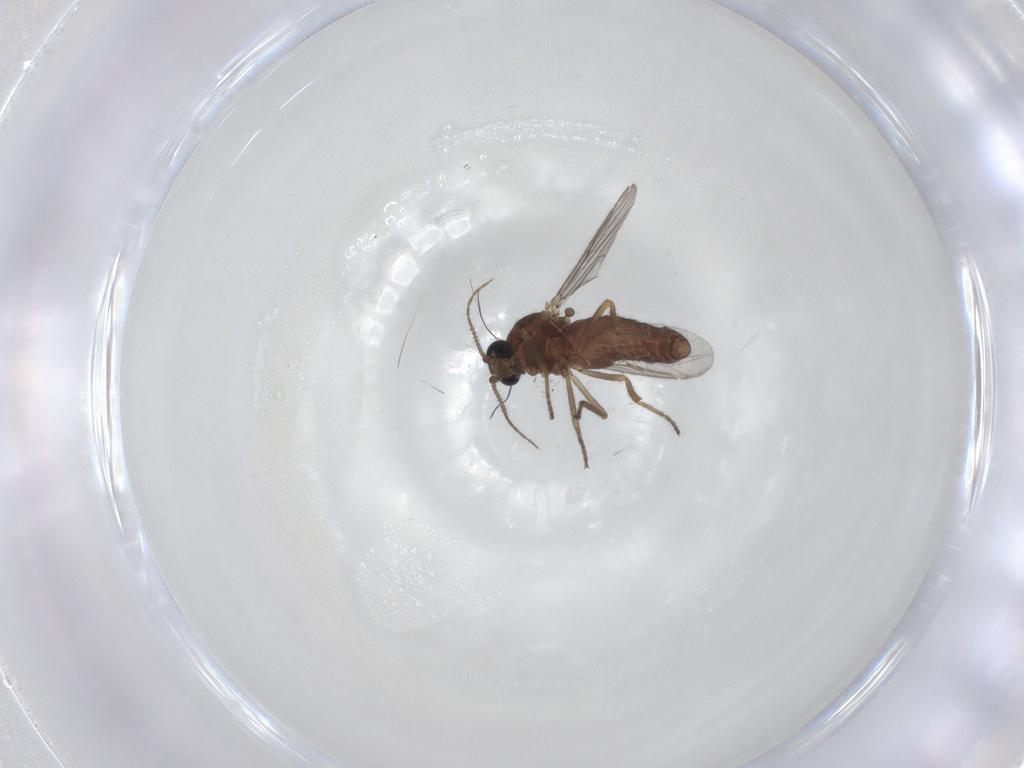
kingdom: Animalia
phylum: Arthropoda
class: Insecta
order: Diptera
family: Ceratopogonidae
